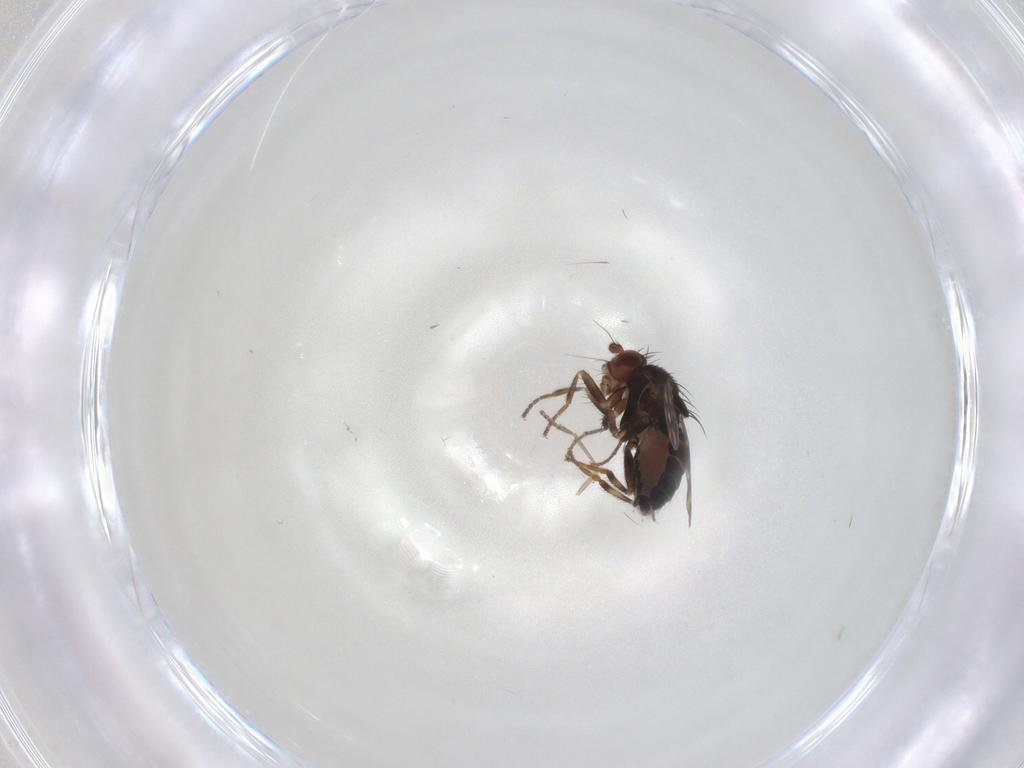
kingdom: Animalia
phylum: Arthropoda
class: Insecta
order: Diptera
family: Sphaeroceridae
